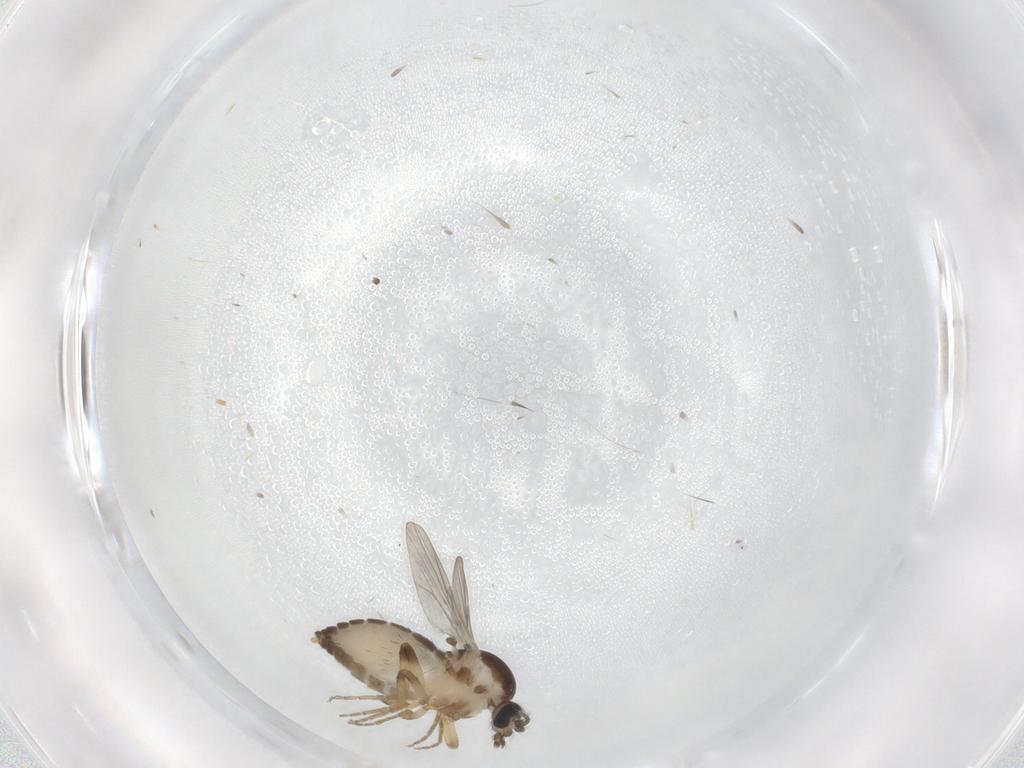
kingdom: Animalia
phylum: Arthropoda
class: Insecta
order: Diptera
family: Ceratopogonidae
